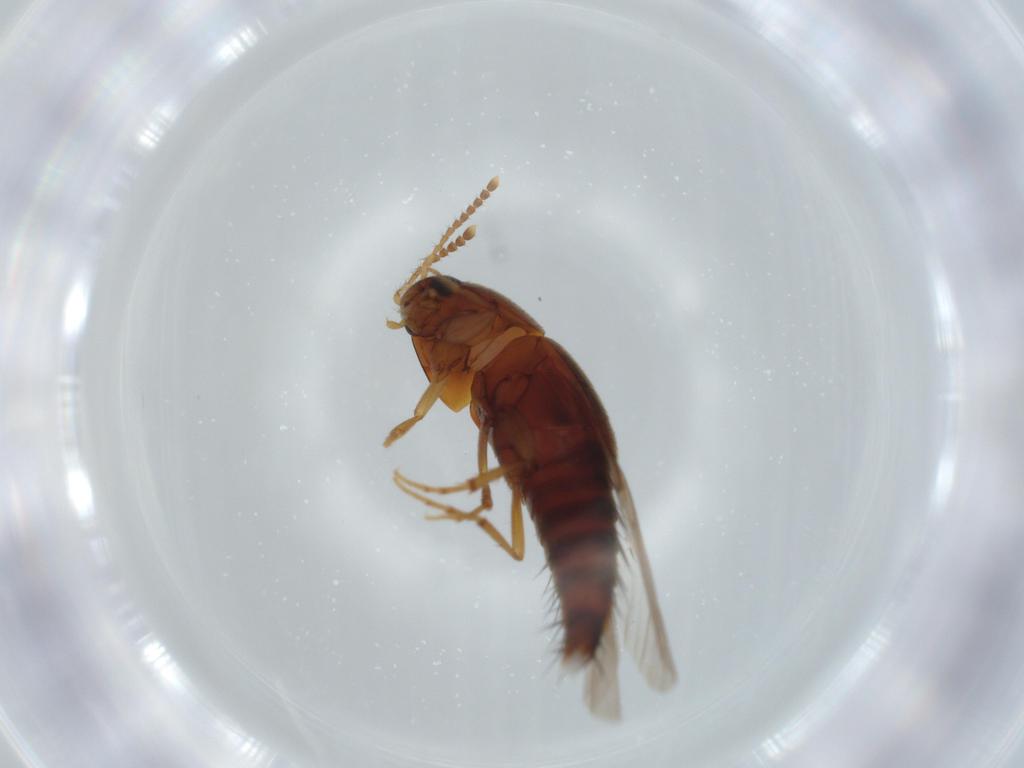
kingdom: Animalia
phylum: Arthropoda
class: Insecta
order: Coleoptera
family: Staphylinidae
